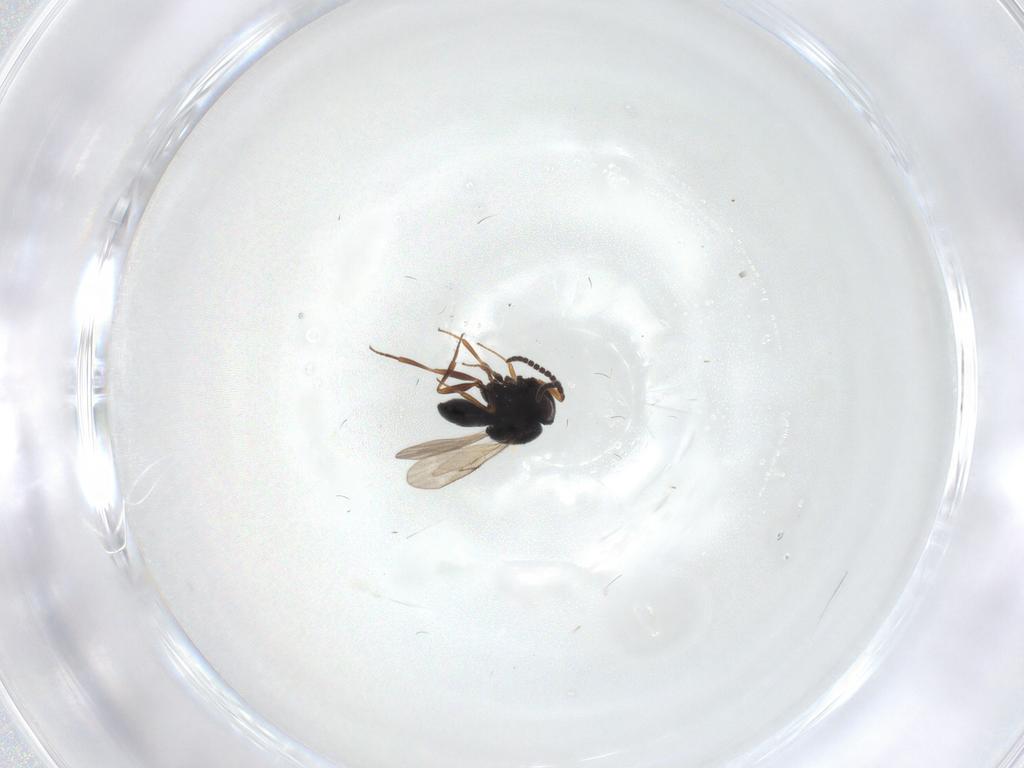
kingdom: Animalia
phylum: Arthropoda
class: Insecta
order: Hymenoptera
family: Scelionidae
